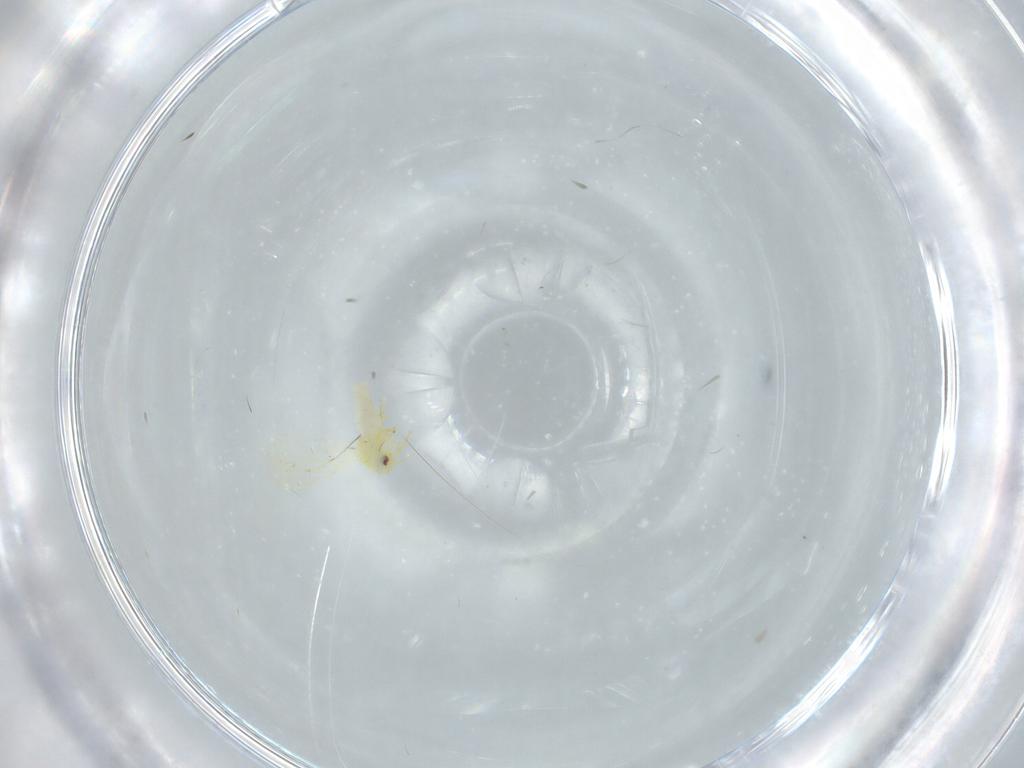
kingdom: Animalia
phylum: Arthropoda
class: Insecta
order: Hemiptera
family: Aleyrodidae
